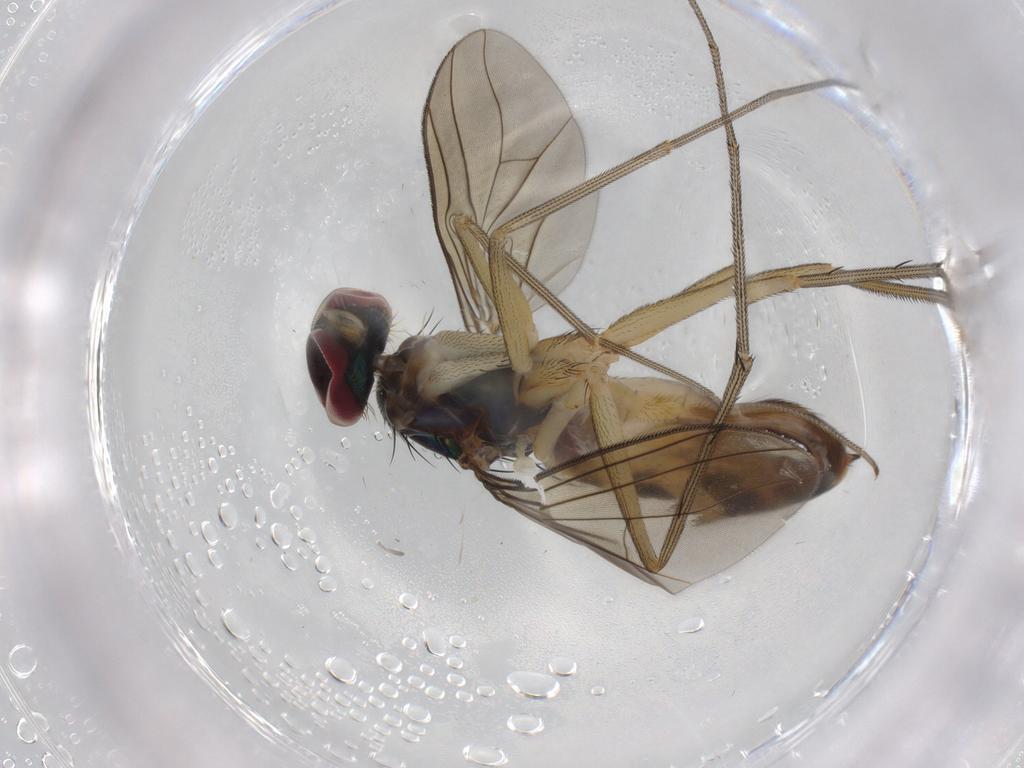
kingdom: Animalia
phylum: Arthropoda
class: Insecta
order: Diptera
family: Dolichopodidae
